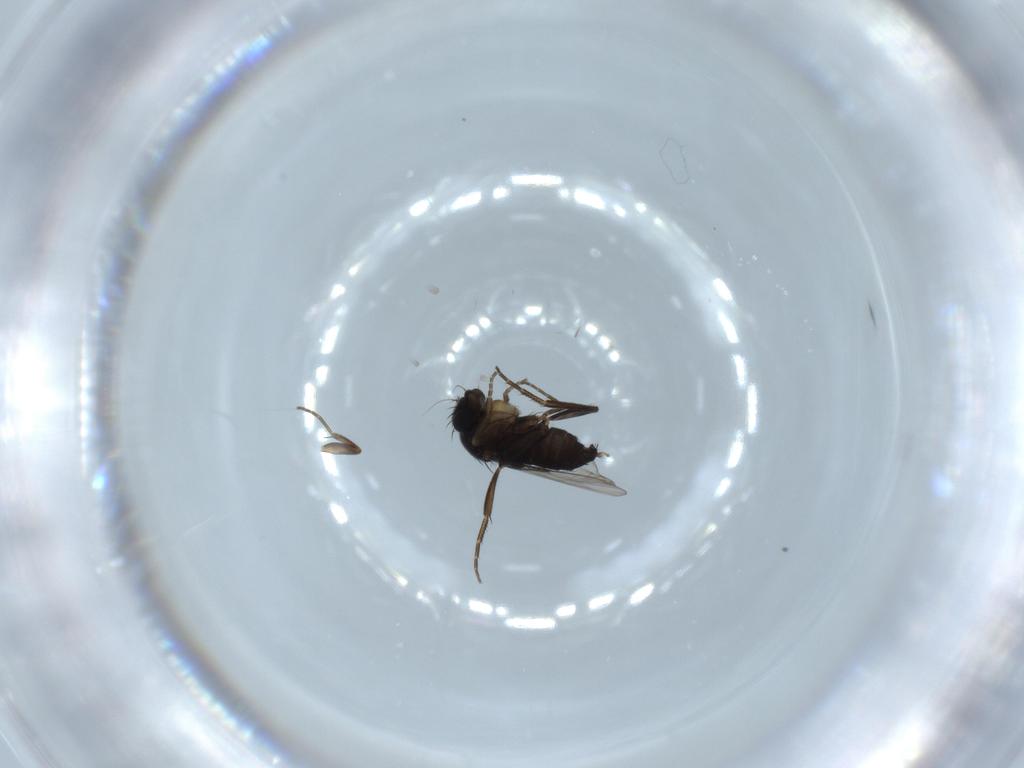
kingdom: Animalia
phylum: Arthropoda
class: Insecta
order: Diptera
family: Phoridae
